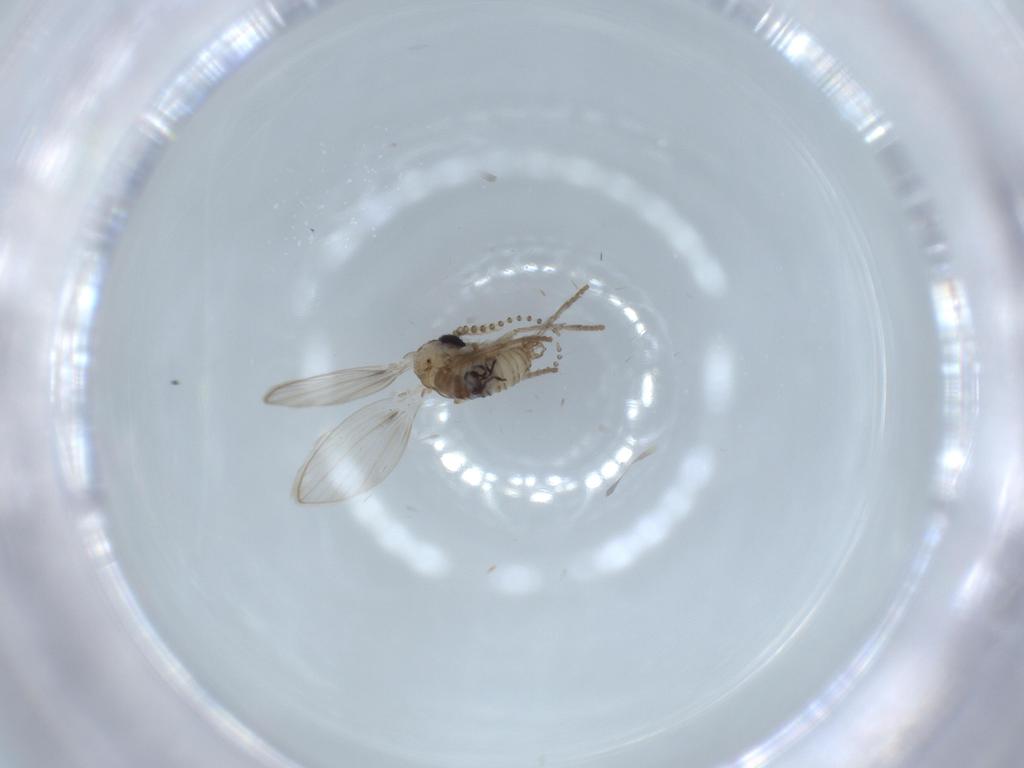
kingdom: Animalia
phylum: Arthropoda
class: Insecta
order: Diptera
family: Psychodidae
